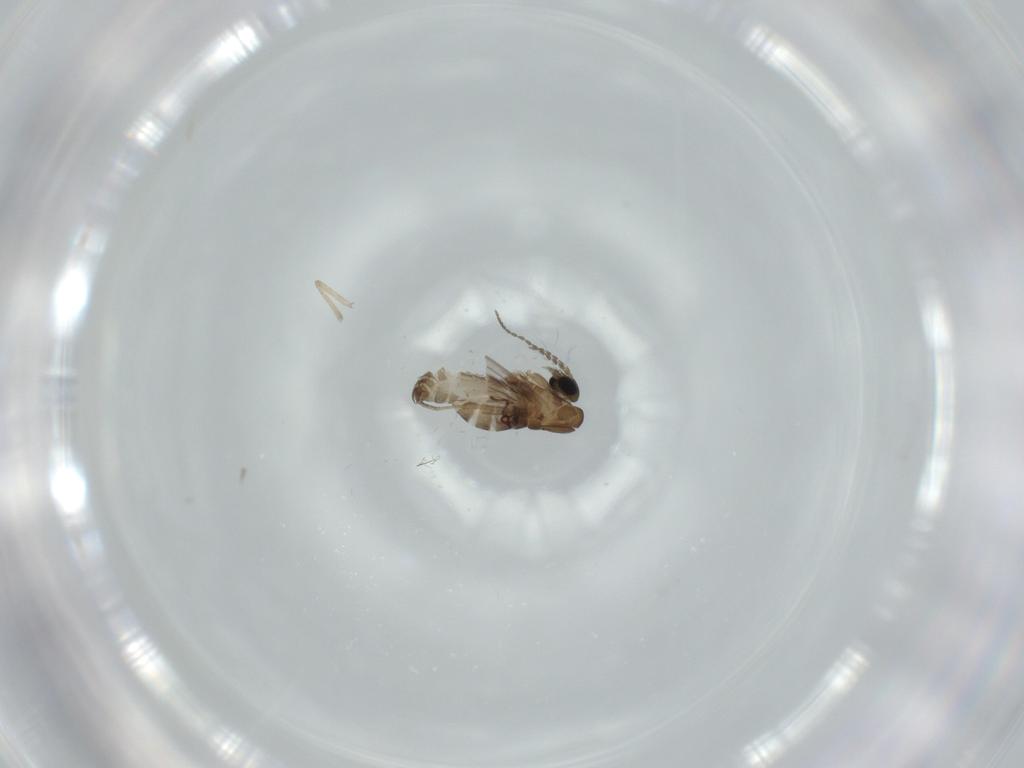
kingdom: Animalia
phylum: Arthropoda
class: Insecta
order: Diptera
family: Psychodidae
